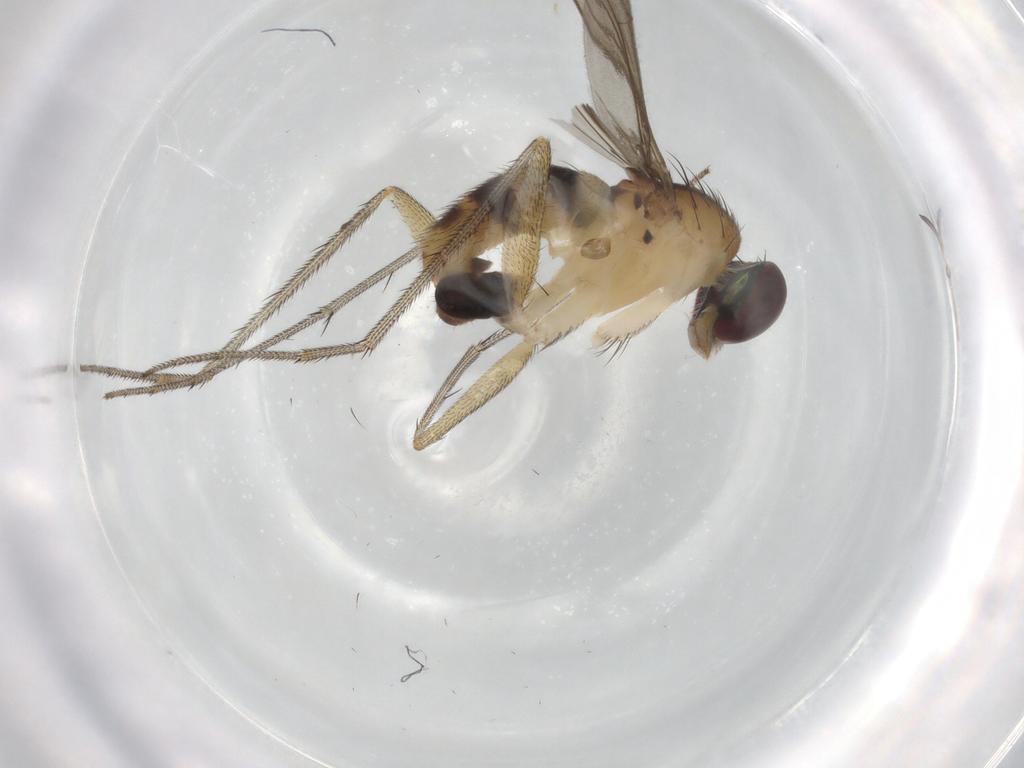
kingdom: Animalia
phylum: Arthropoda
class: Insecta
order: Diptera
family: Dolichopodidae
